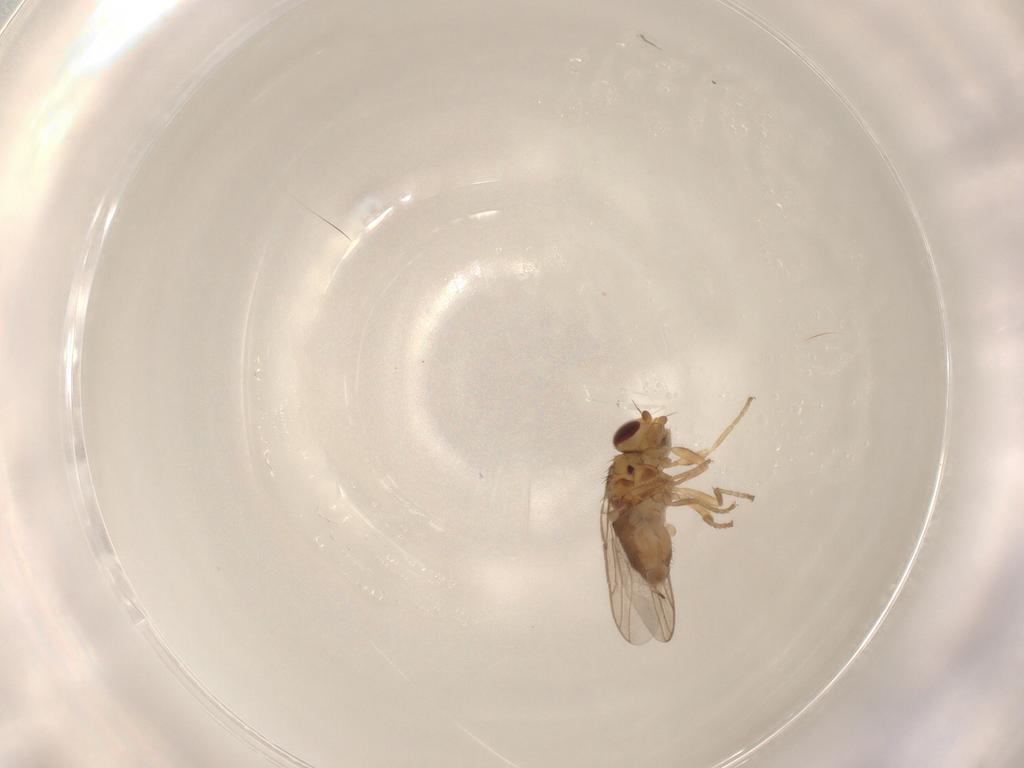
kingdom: Animalia
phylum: Arthropoda
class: Insecta
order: Diptera
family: Chloropidae
